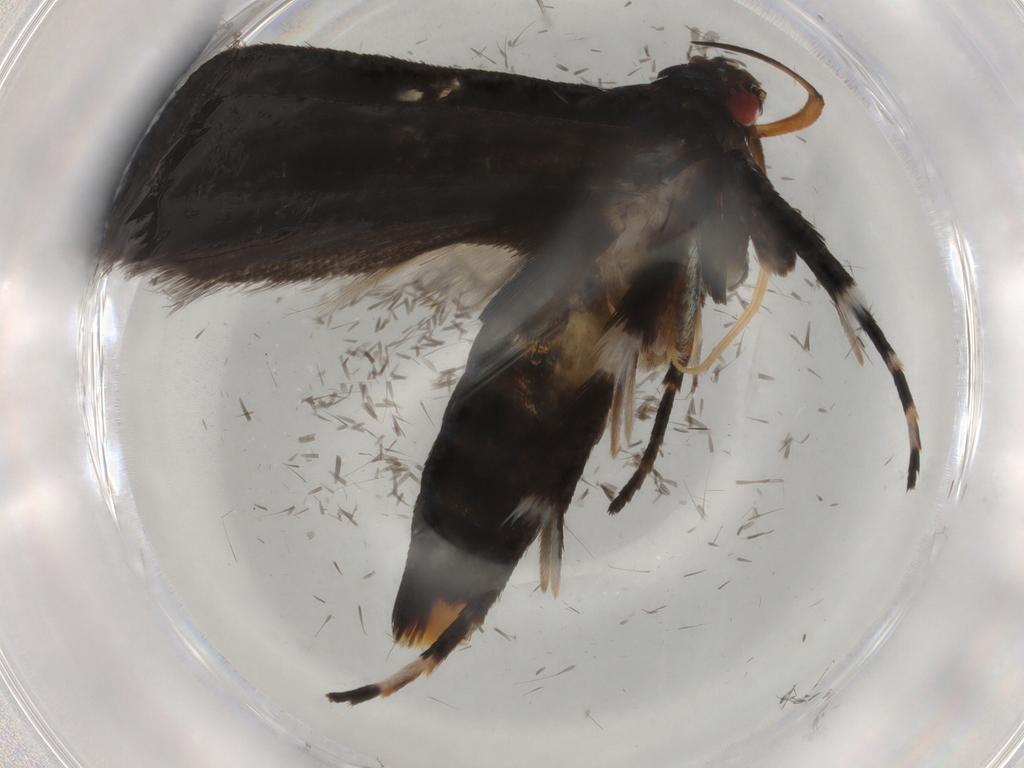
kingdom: Animalia
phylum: Arthropoda
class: Insecta
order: Lepidoptera
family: Gelechiidae
